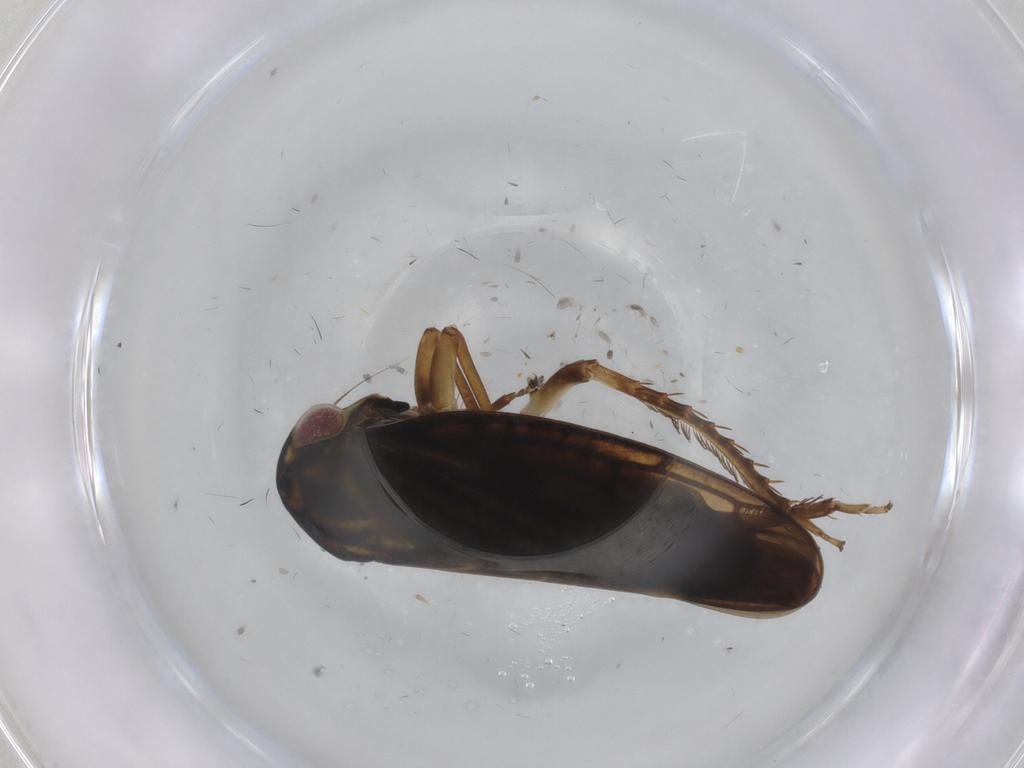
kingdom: Animalia
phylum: Arthropoda
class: Insecta
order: Hemiptera
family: Cicadellidae
